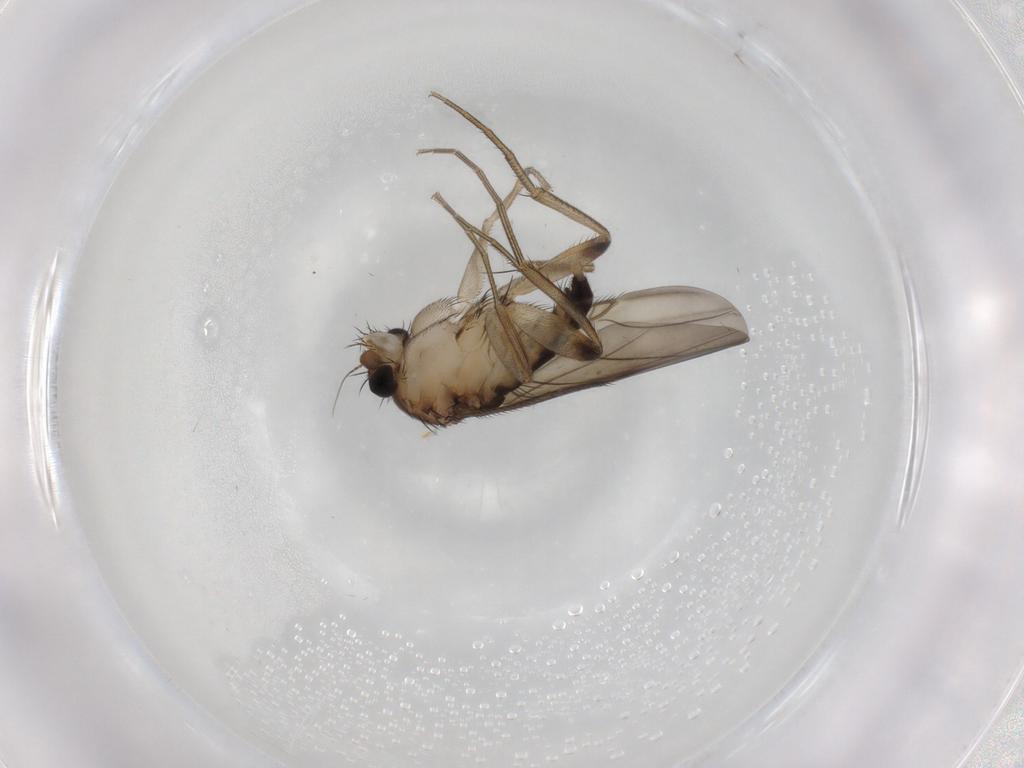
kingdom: Animalia
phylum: Arthropoda
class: Insecta
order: Diptera
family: Phoridae
